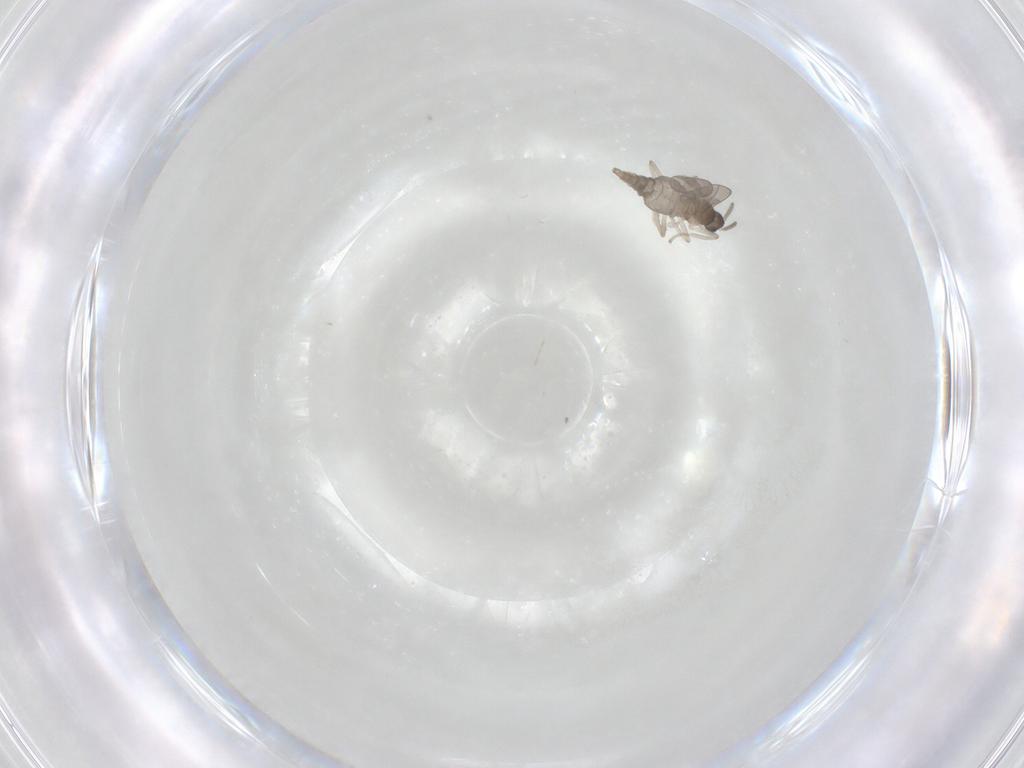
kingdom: Animalia
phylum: Arthropoda
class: Insecta
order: Diptera
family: Cecidomyiidae
